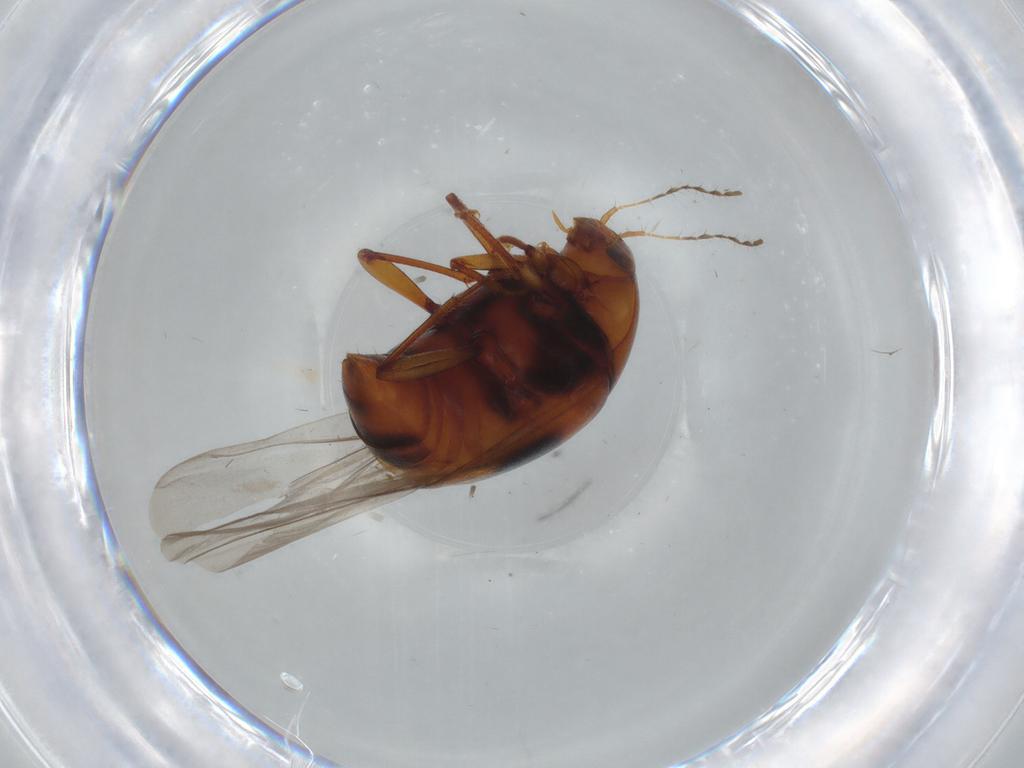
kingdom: Animalia
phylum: Arthropoda
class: Insecta
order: Coleoptera
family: Staphylinidae
